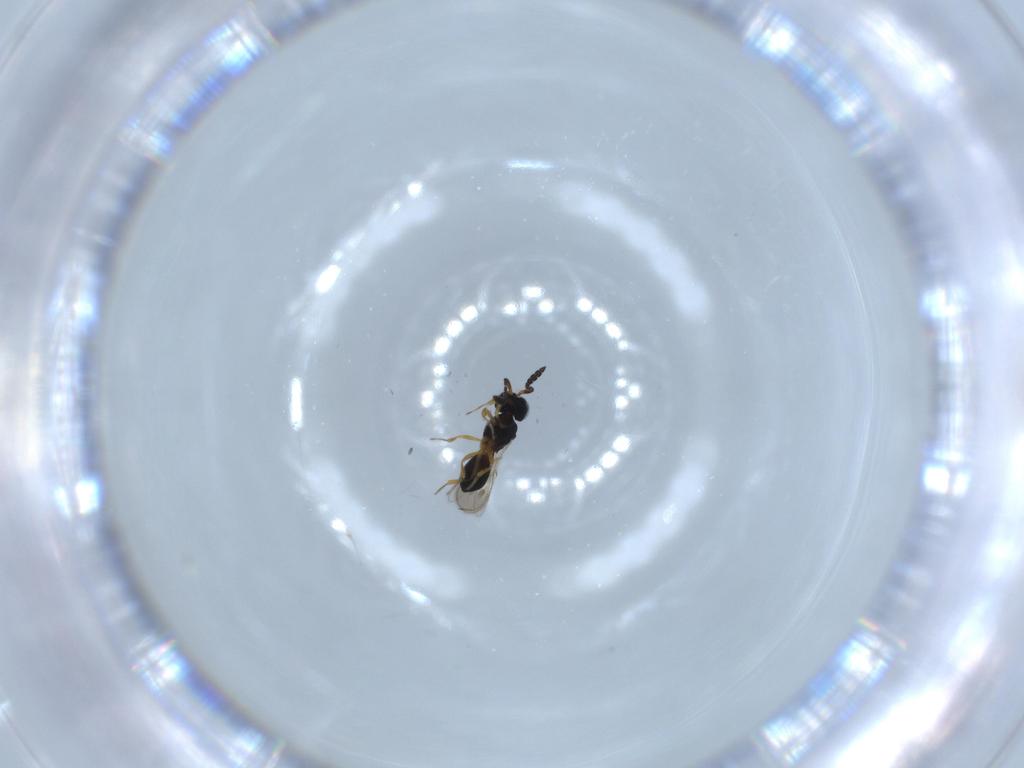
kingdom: Animalia
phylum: Arthropoda
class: Insecta
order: Hymenoptera
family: Scelionidae
